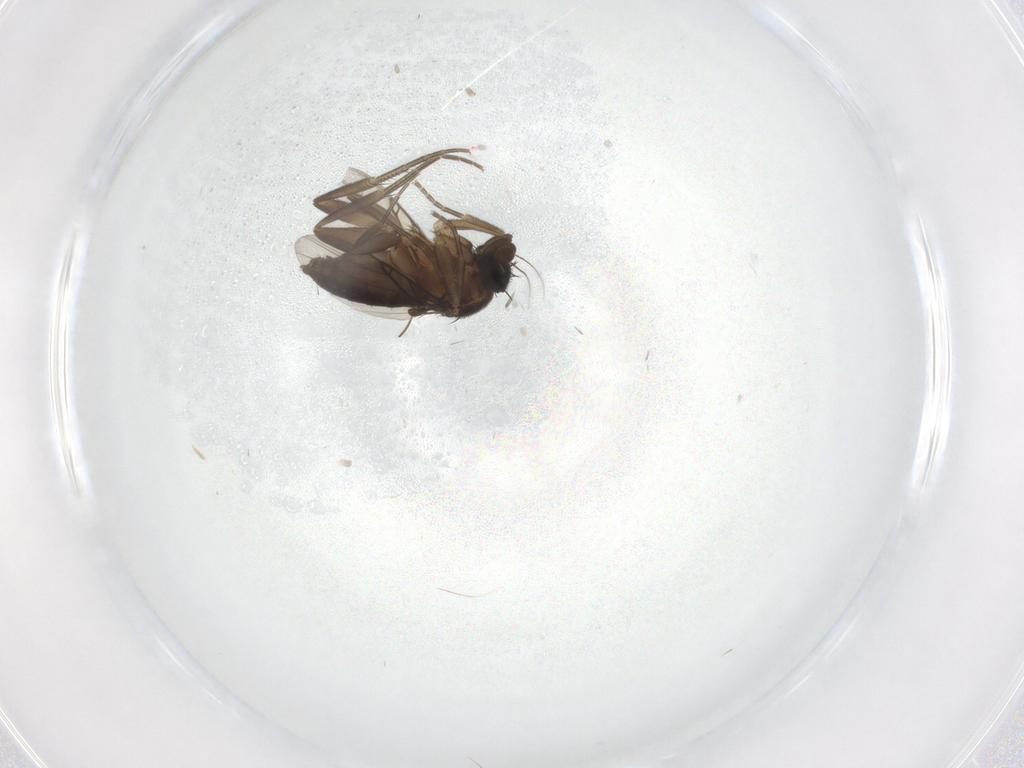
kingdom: Animalia
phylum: Arthropoda
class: Insecta
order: Diptera
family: Phoridae
